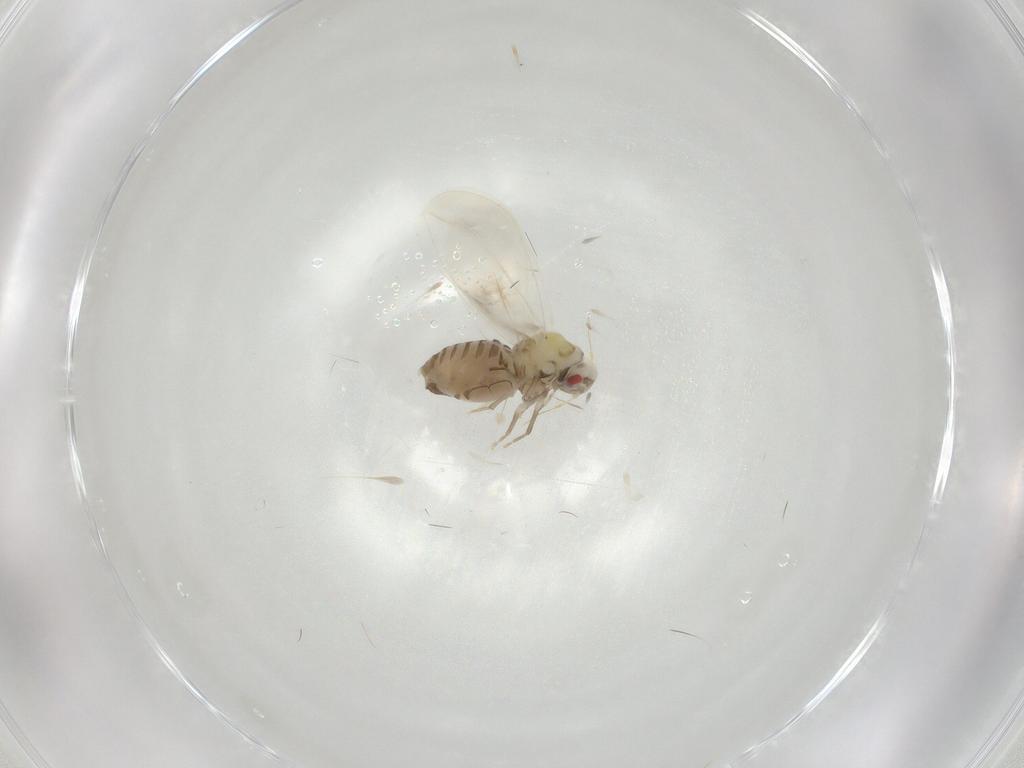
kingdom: Animalia
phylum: Arthropoda
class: Insecta
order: Hemiptera
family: Aleyrodidae
